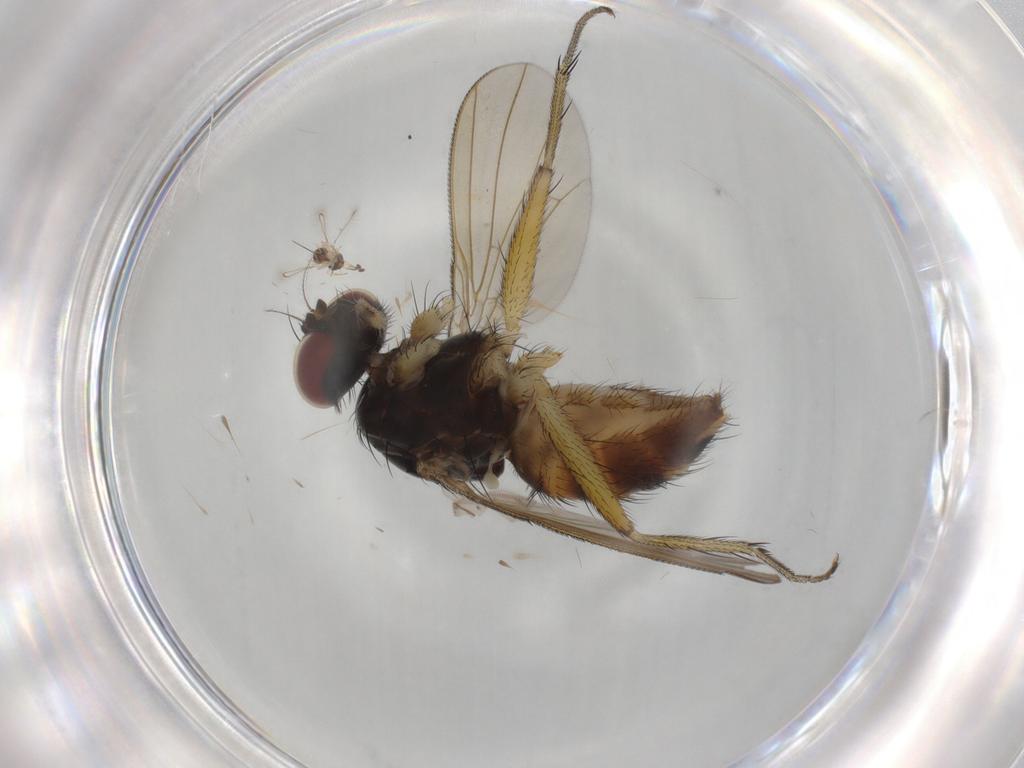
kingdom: Animalia
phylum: Arthropoda
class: Insecta
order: Diptera
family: Muscidae
